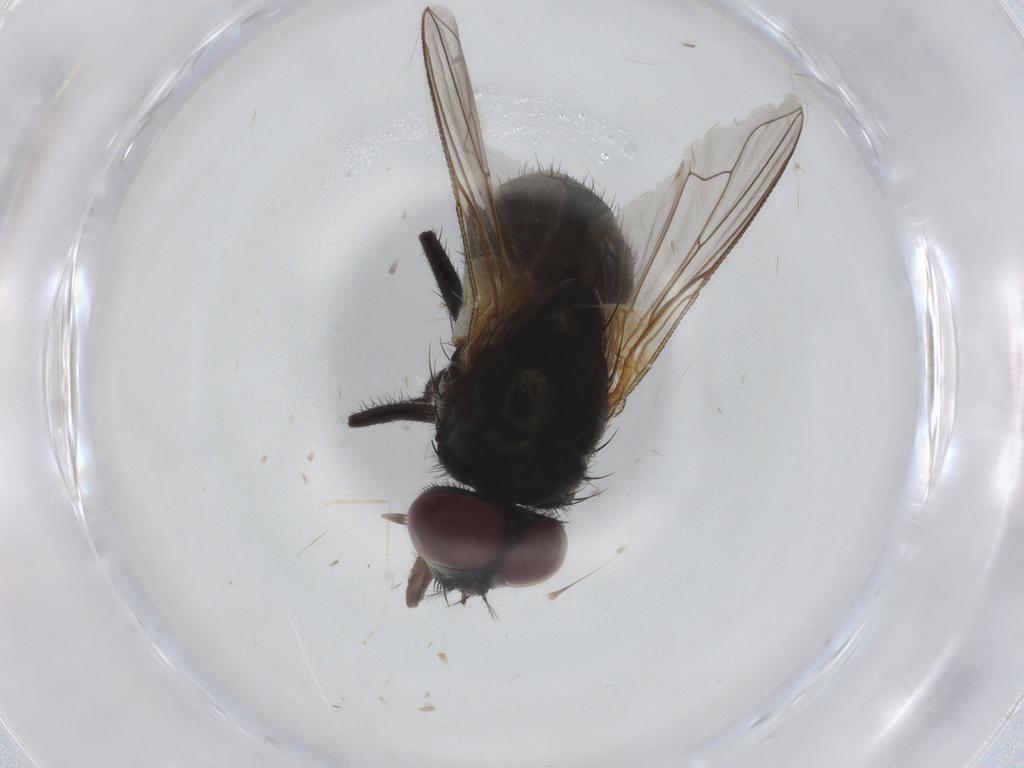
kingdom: Animalia
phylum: Arthropoda
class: Insecta
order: Diptera
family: Muscidae
